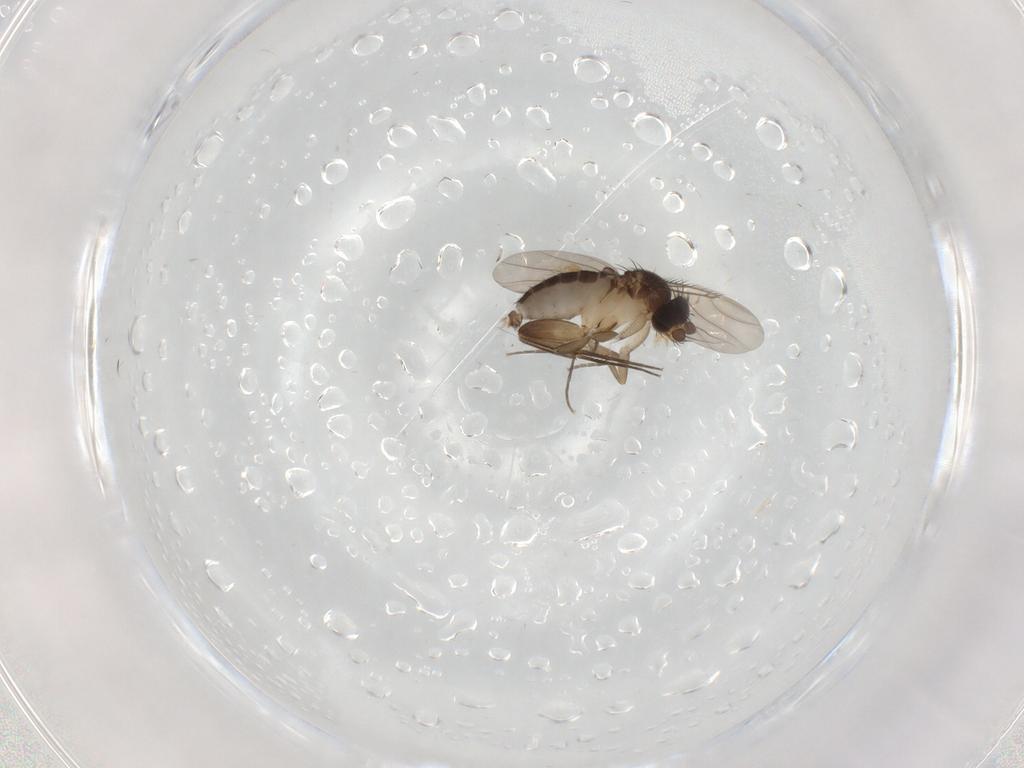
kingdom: Animalia
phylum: Arthropoda
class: Insecta
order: Diptera
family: Phoridae
